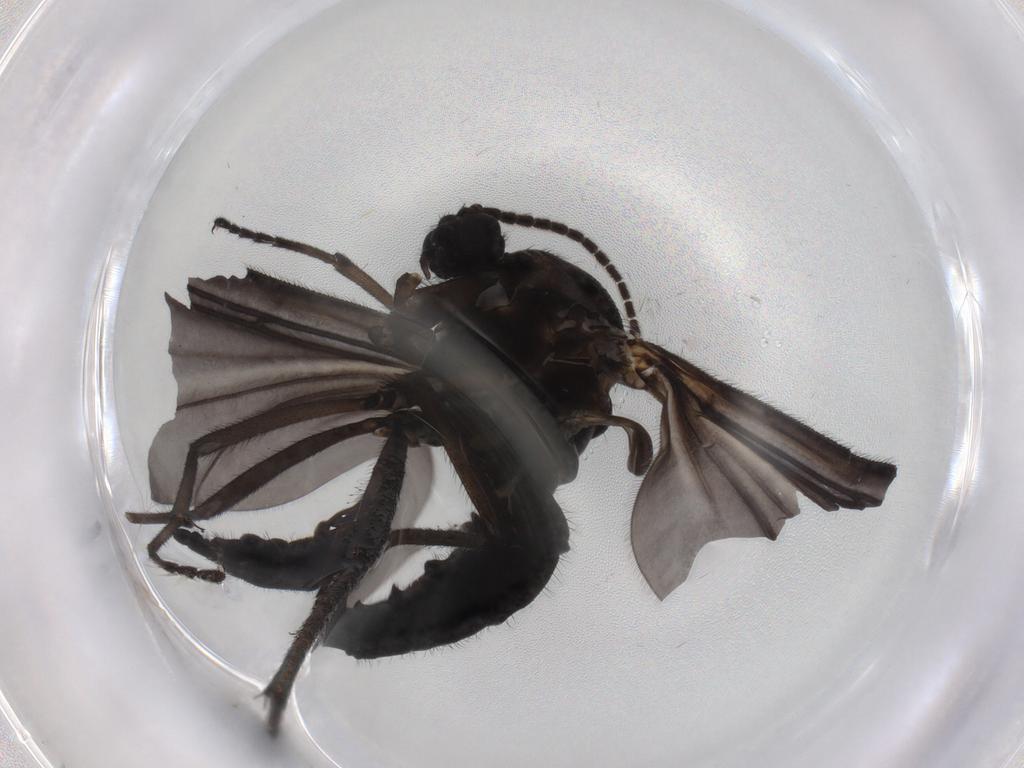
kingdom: Animalia
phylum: Arthropoda
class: Insecta
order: Diptera
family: Sciaridae
